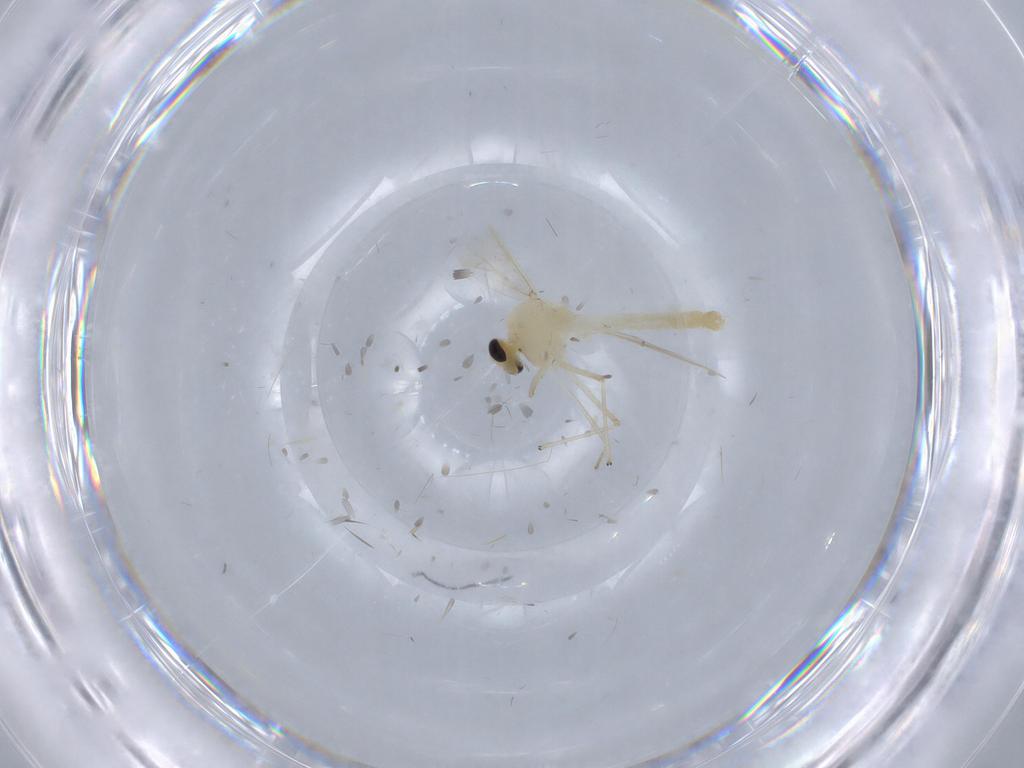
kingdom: Animalia
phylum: Arthropoda
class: Insecta
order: Diptera
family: Chironomidae
